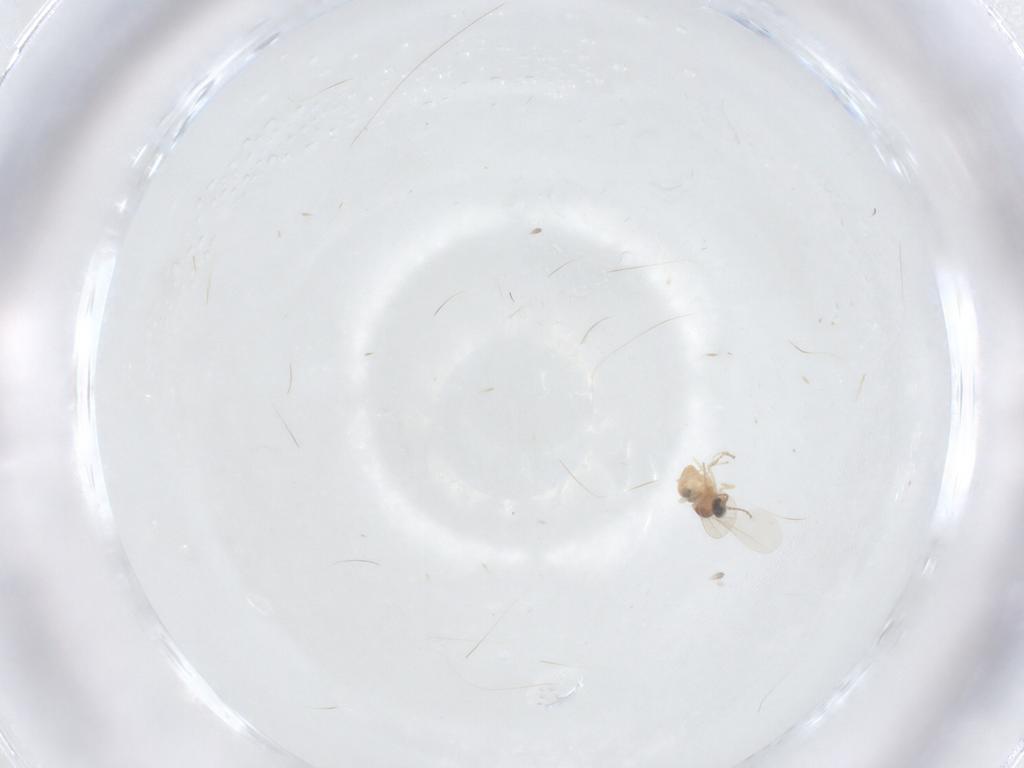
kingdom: Animalia
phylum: Arthropoda
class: Insecta
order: Diptera
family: Cecidomyiidae
